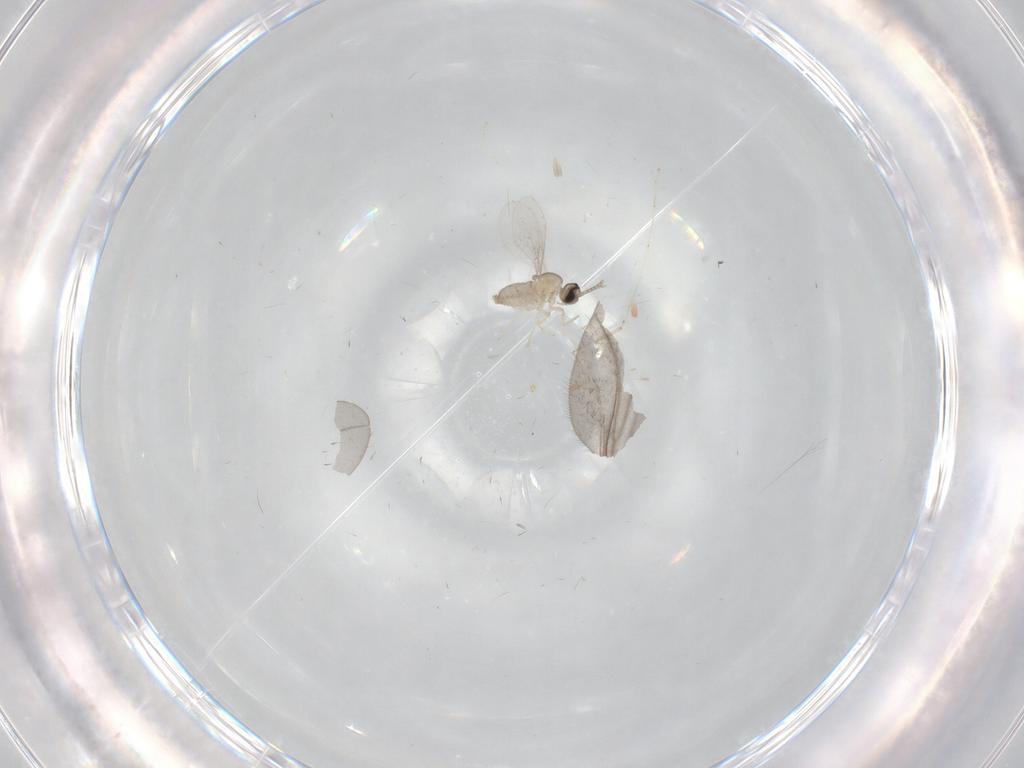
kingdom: Animalia
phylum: Arthropoda
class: Insecta
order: Diptera
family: Cecidomyiidae
